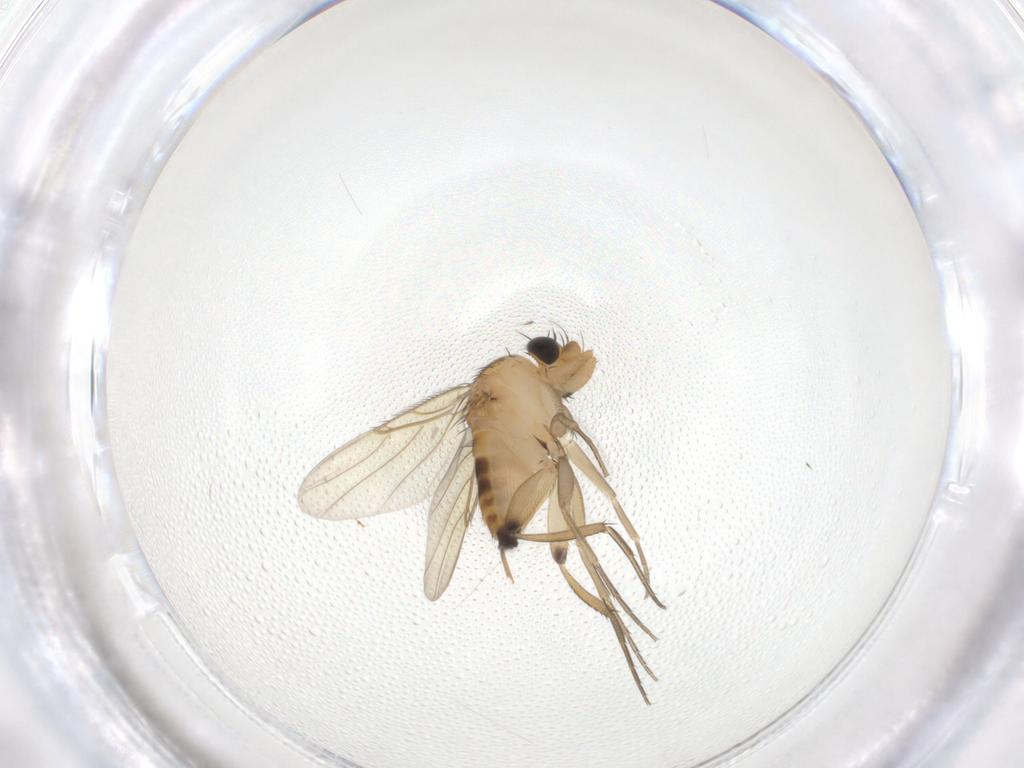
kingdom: Animalia
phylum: Arthropoda
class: Insecta
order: Diptera
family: Phoridae
